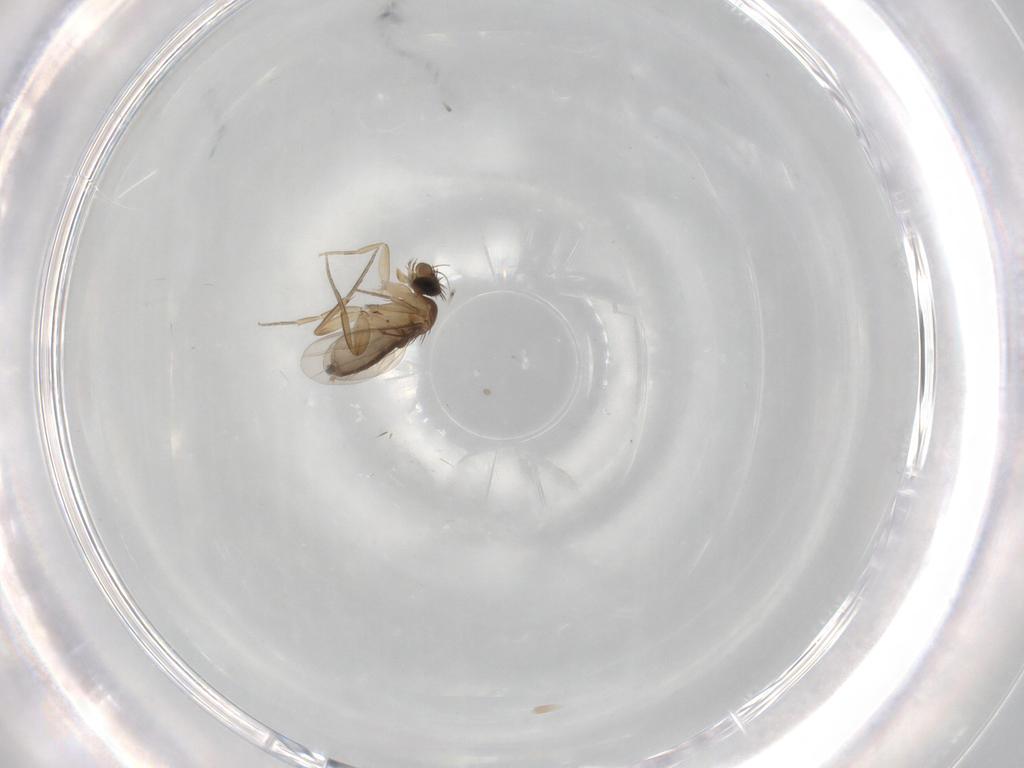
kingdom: Animalia
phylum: Arthropoda
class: Insecta
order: Diptera
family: Phoridae
